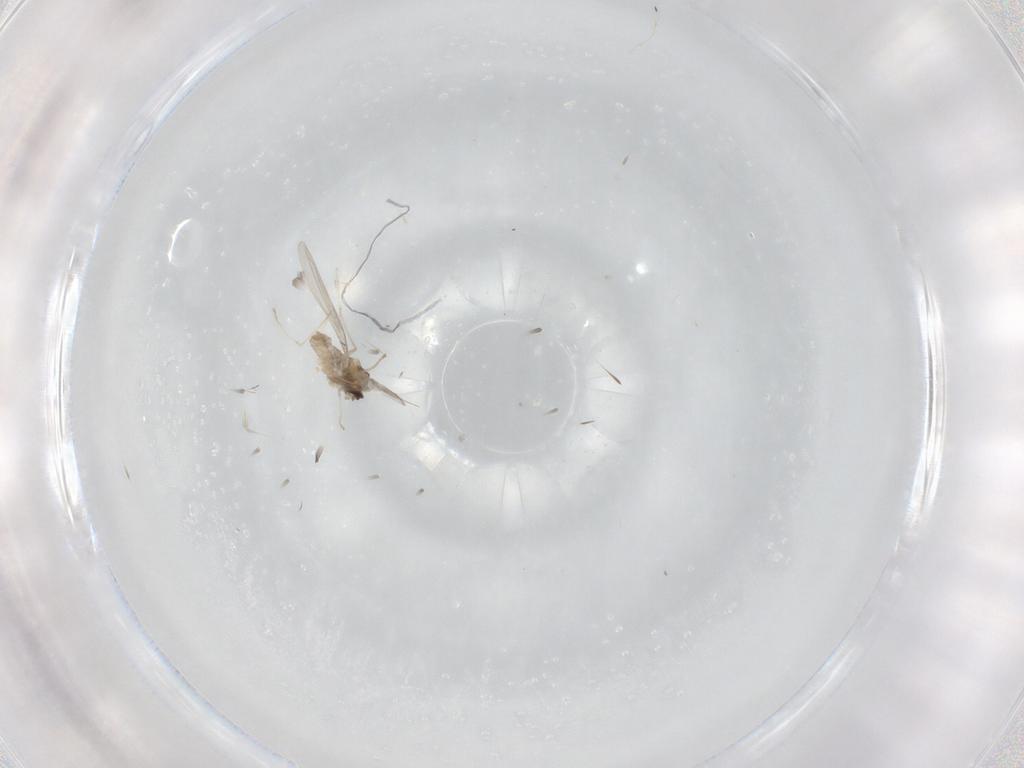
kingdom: Animalia
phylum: Arthropoda
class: Insecta
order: Diptera
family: Cecidomyiidae
